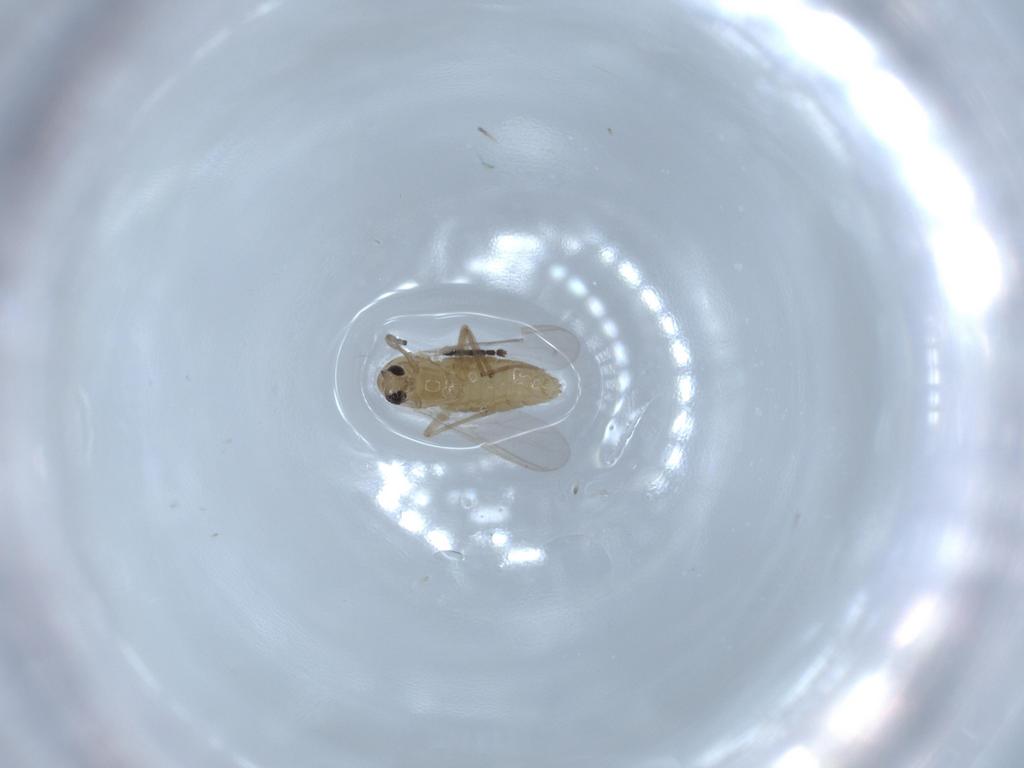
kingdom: Animalia
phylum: Arthropoda
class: Insecta
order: Diptera
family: Chironomidae
